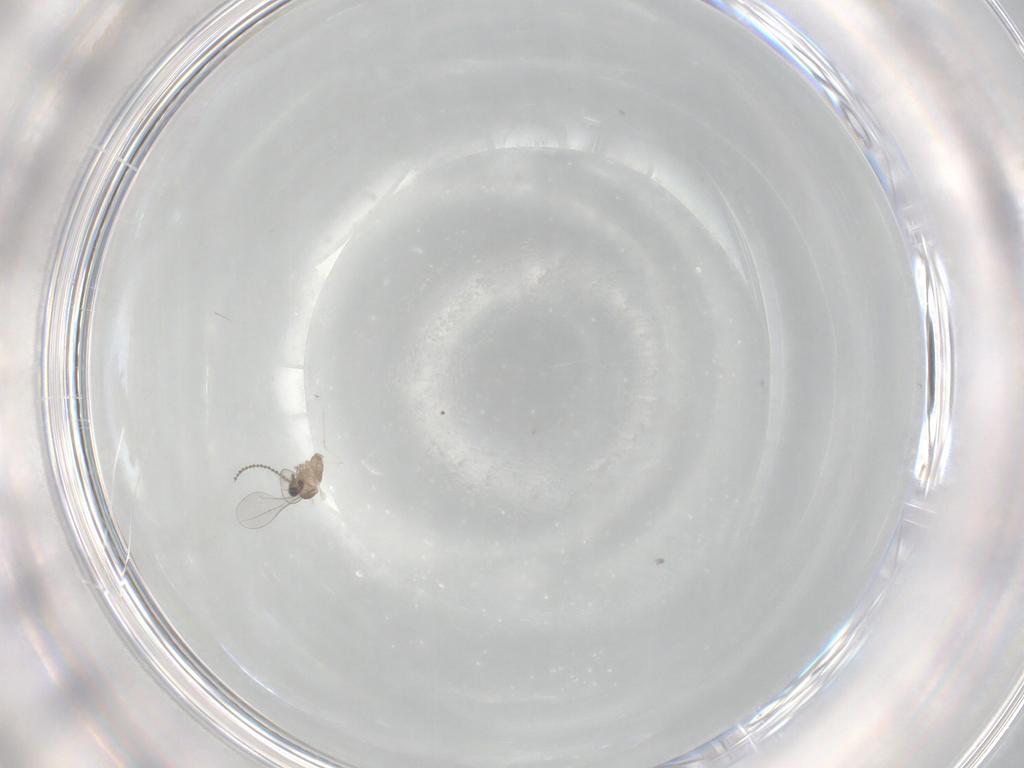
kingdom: Animalia
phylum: Arthropoda
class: Insecta
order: Diptera
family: Cecidomyiidae
